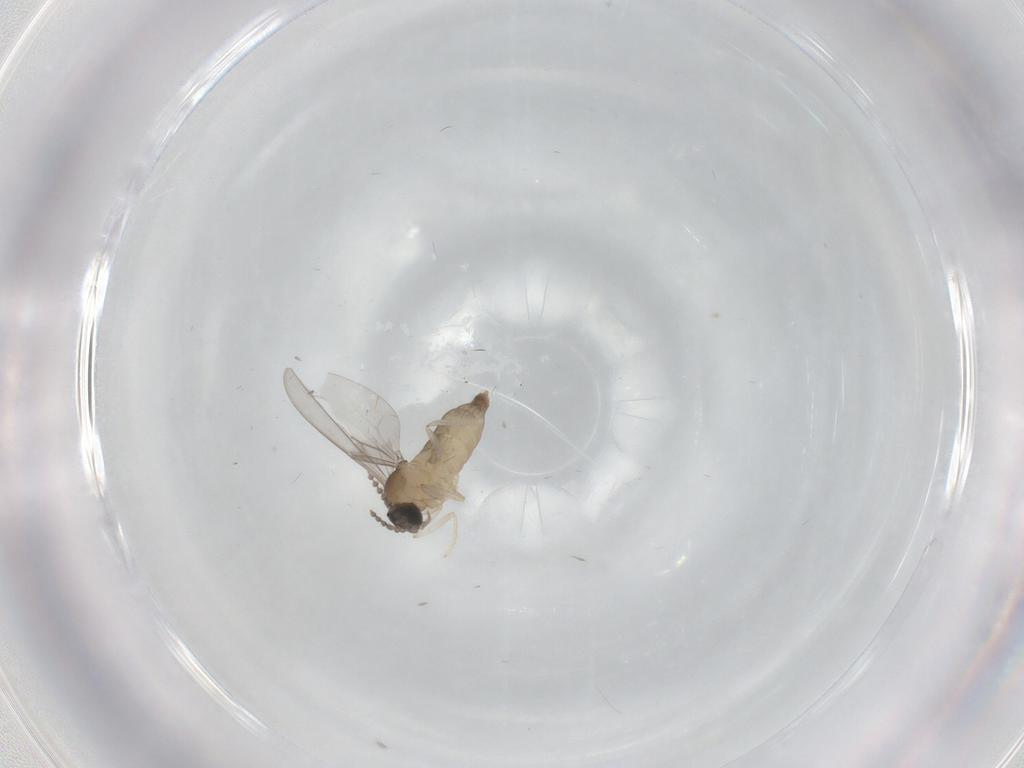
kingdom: Animalia
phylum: Arthropoda
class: Insecta
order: Diptera
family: Cecidomyiidae
